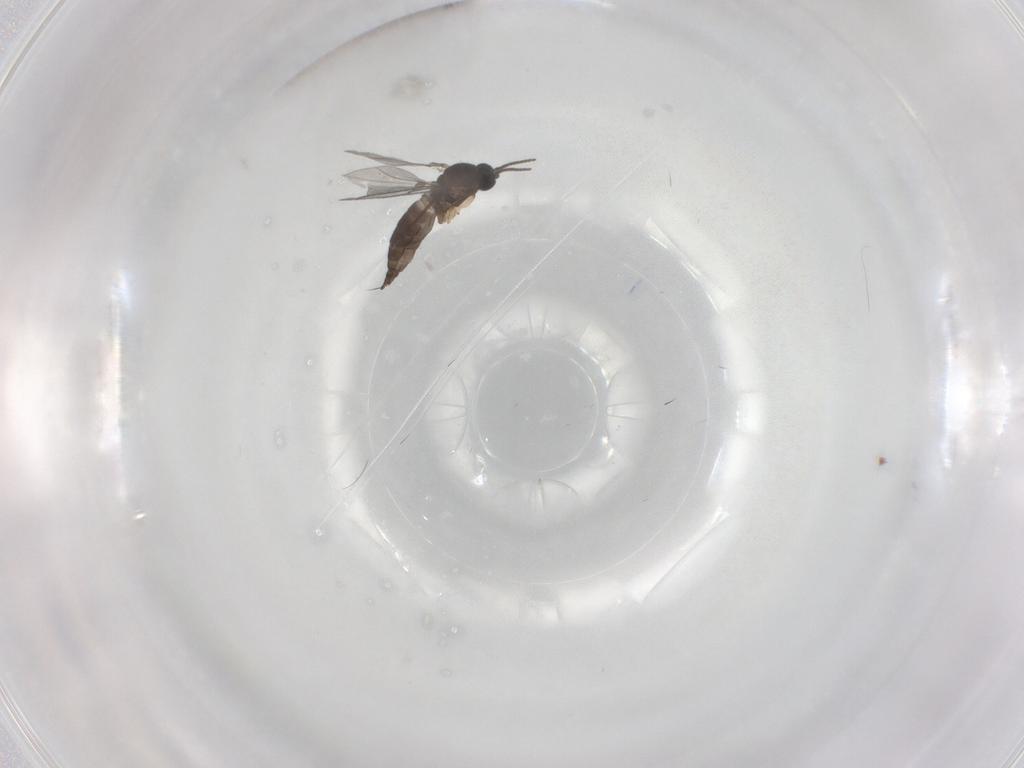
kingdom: Animalia
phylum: Arthropoda
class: Insecta
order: Diptera
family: Sciaridae
